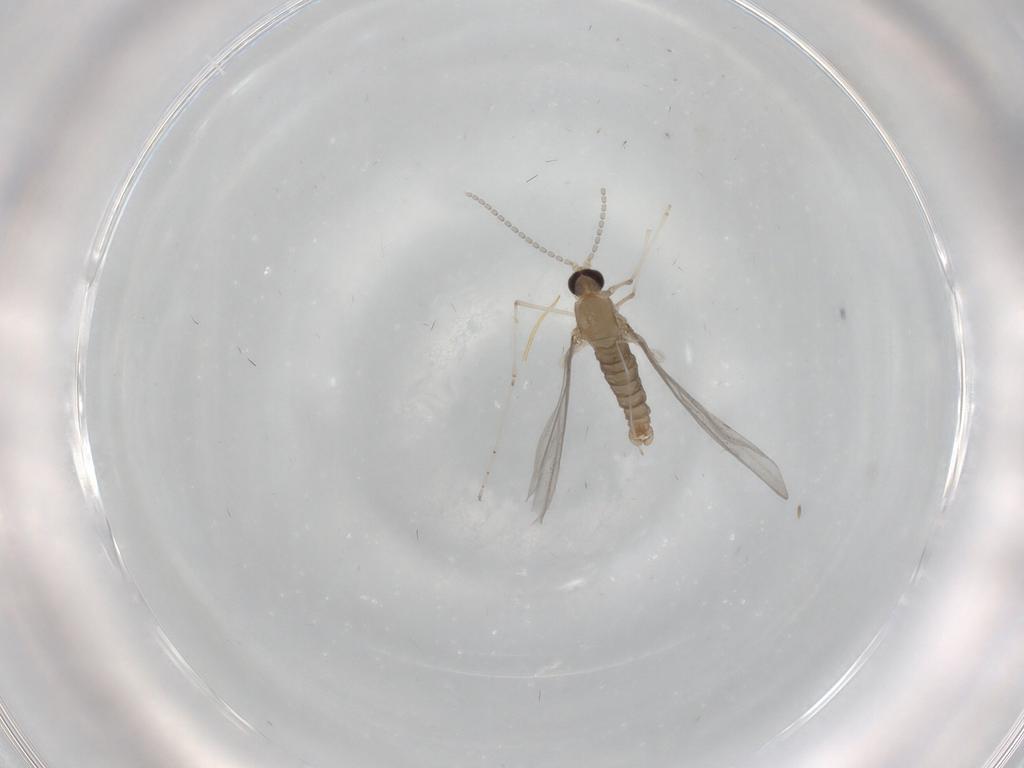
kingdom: Animalia
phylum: Arthropoda
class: Insecta
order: Diptera
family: Cecidomyiidae
